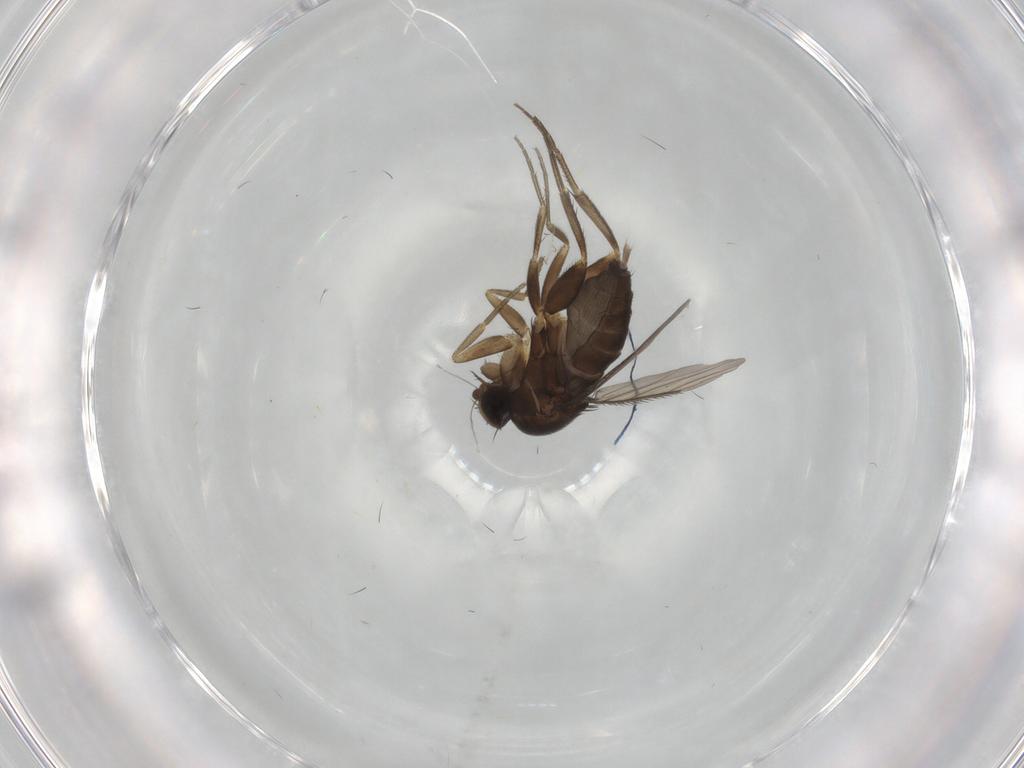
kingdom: Animalia
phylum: Arthropoda
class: Insecta
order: Diptera
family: Phoridae
